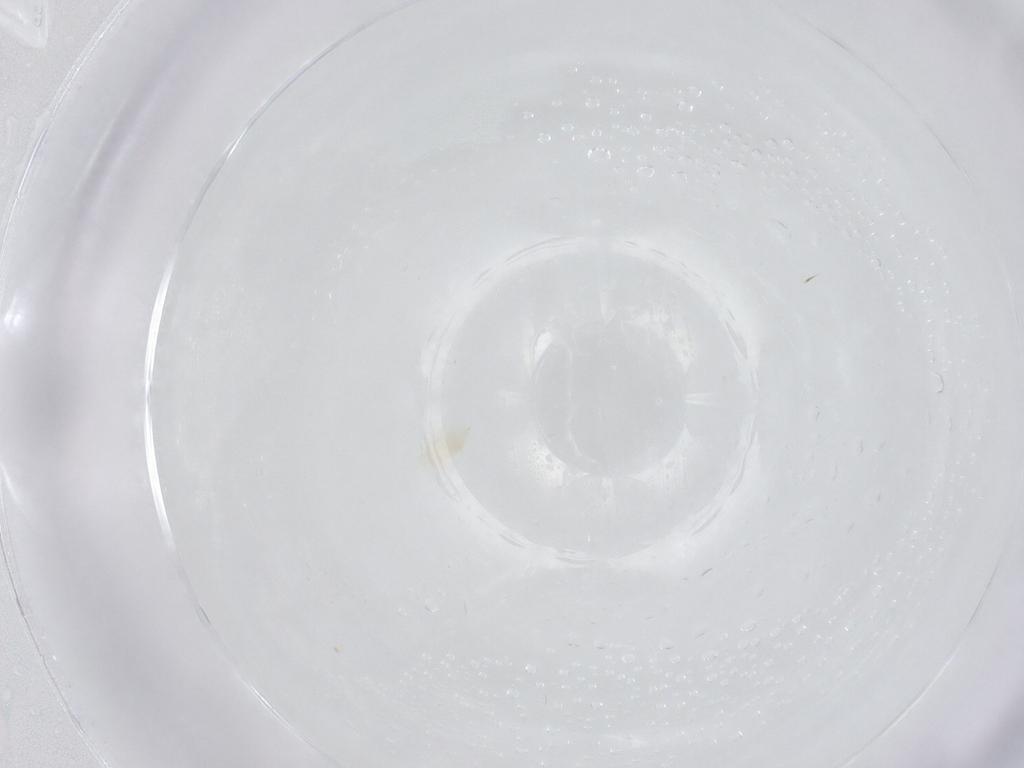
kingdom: Animalia
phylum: Arthropoda
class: Arachnida
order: Trombidiformes
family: Eupodidae
